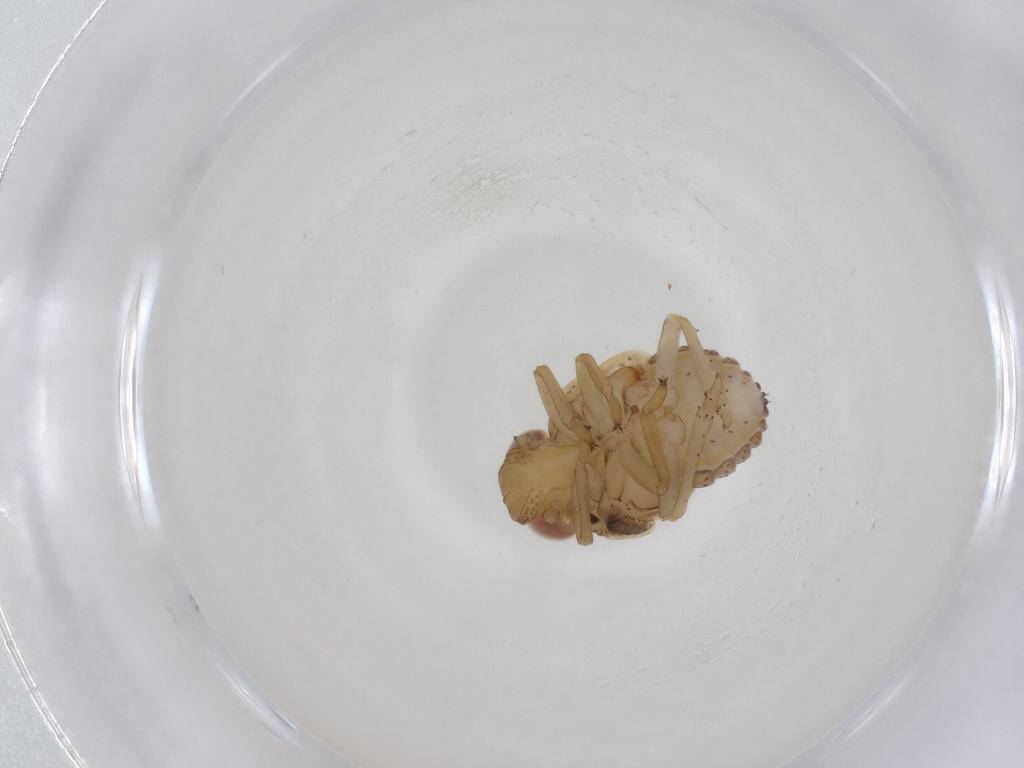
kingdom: Animalia
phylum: Arthropoda
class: Insecta
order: Hemiptera
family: Issidae
